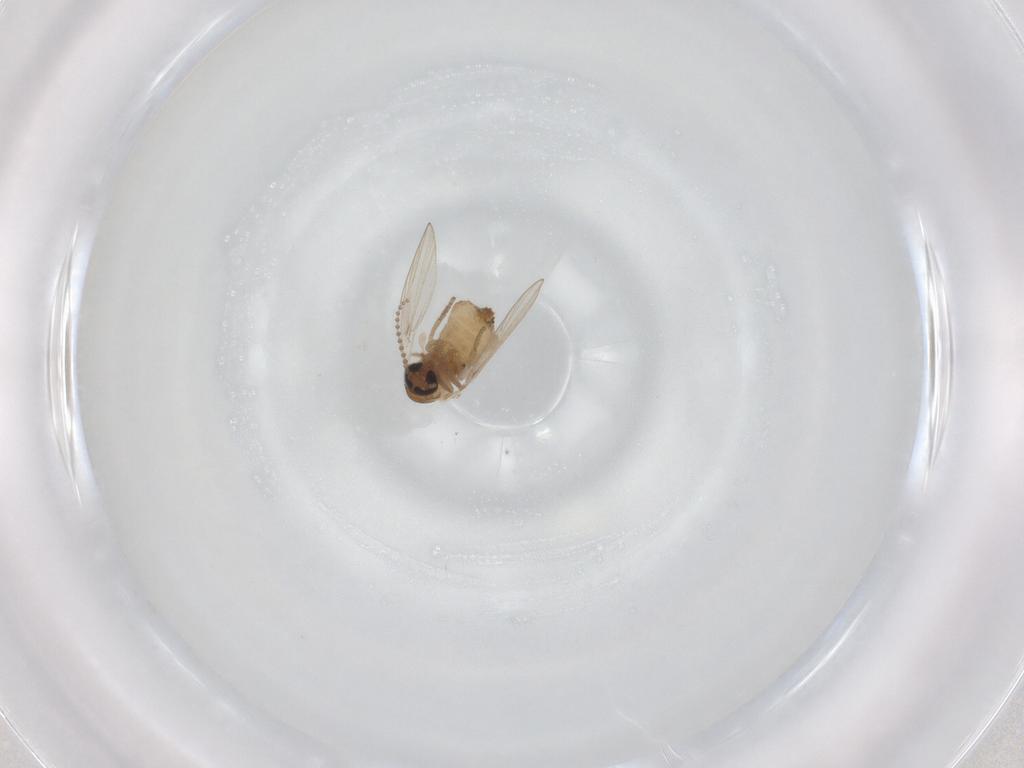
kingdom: Animalia
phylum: Arthropoda
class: Insecta
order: Diptera
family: Psychodidae
